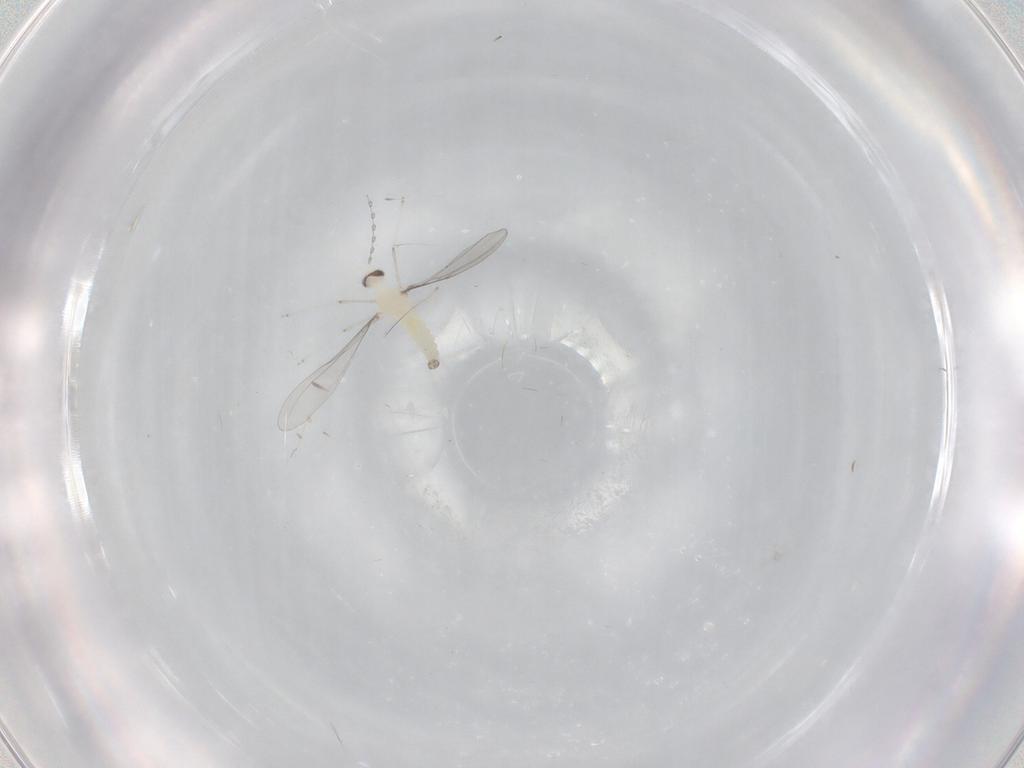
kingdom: Animalia
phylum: Arthropoda
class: Insecta
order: Diptera
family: Cecidomyiidae
